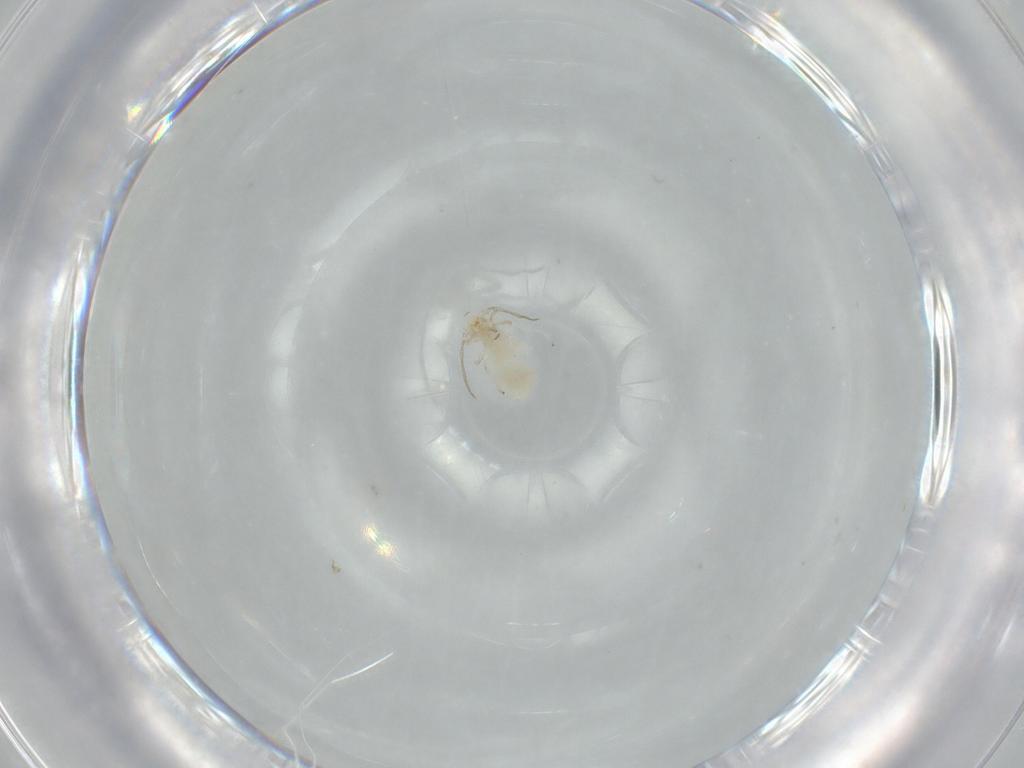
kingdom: Animalia
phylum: Arthropoda
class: Insecta
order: Psocodea
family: Caeciliusidae
